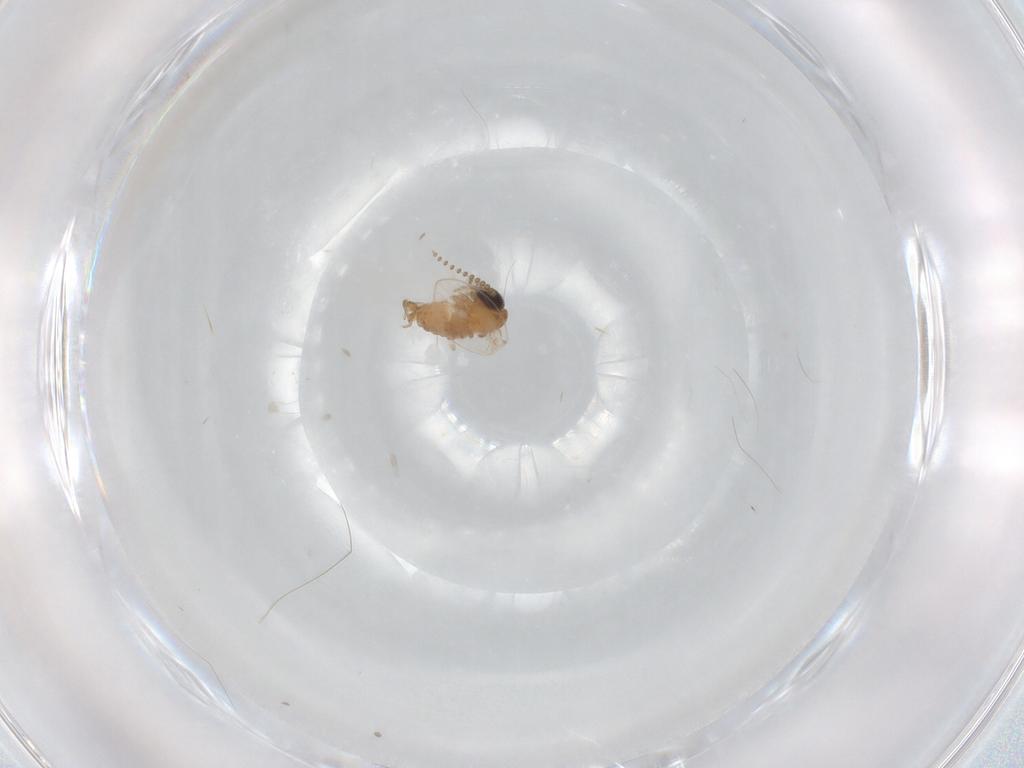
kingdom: Animalia
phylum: Arthropoda
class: Insecta
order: Diptera
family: Psychodidae
